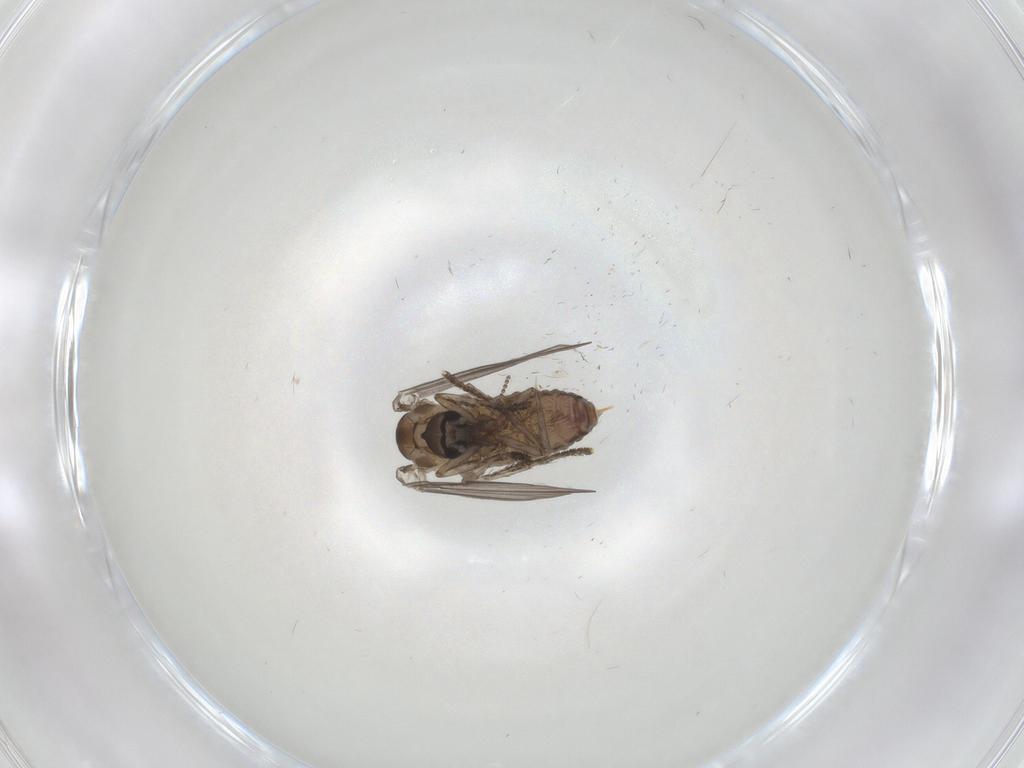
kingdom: Animalia
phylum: Arthropoda
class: Insecta
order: Diptera
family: Psychodidae
